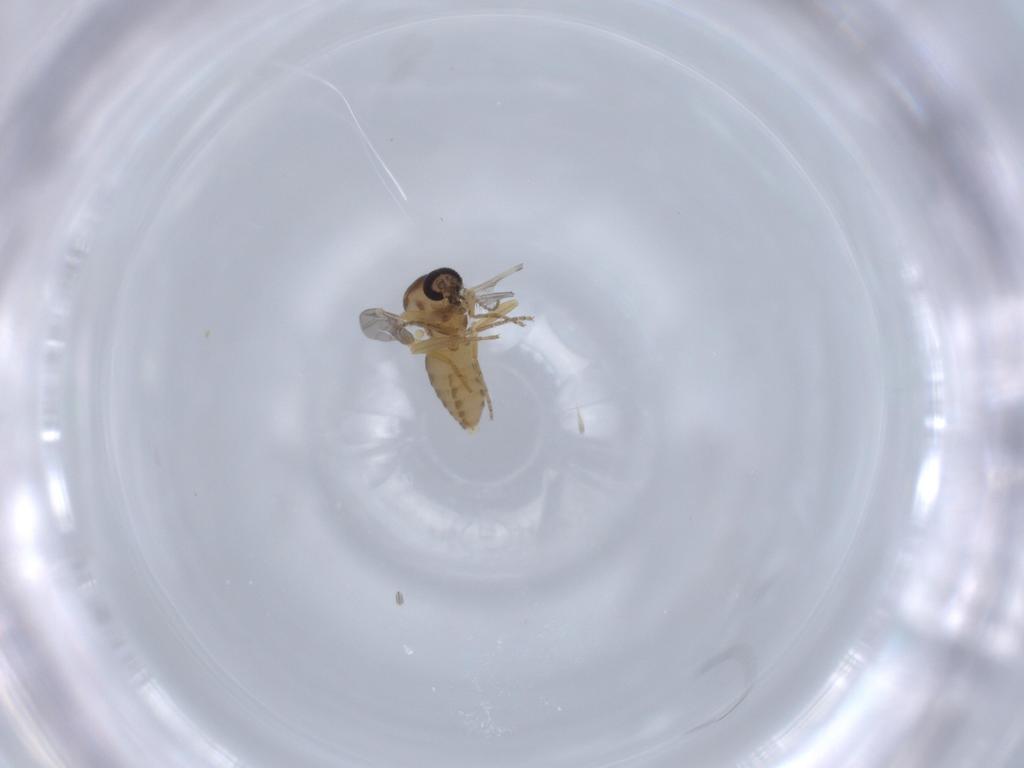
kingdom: Animalia
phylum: Arthropoda
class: Insecta
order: Diptera
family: Ceratopogonidae
